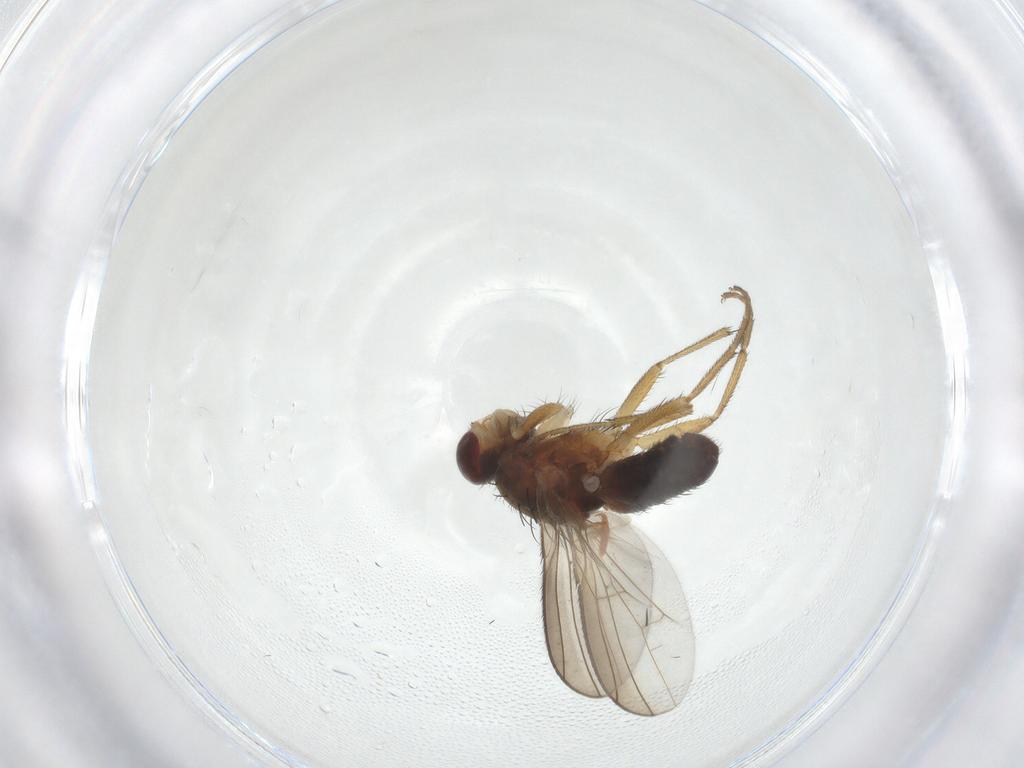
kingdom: Animalia
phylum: Arthropoda
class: Insecta
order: Diptera
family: Heleomyzidae
